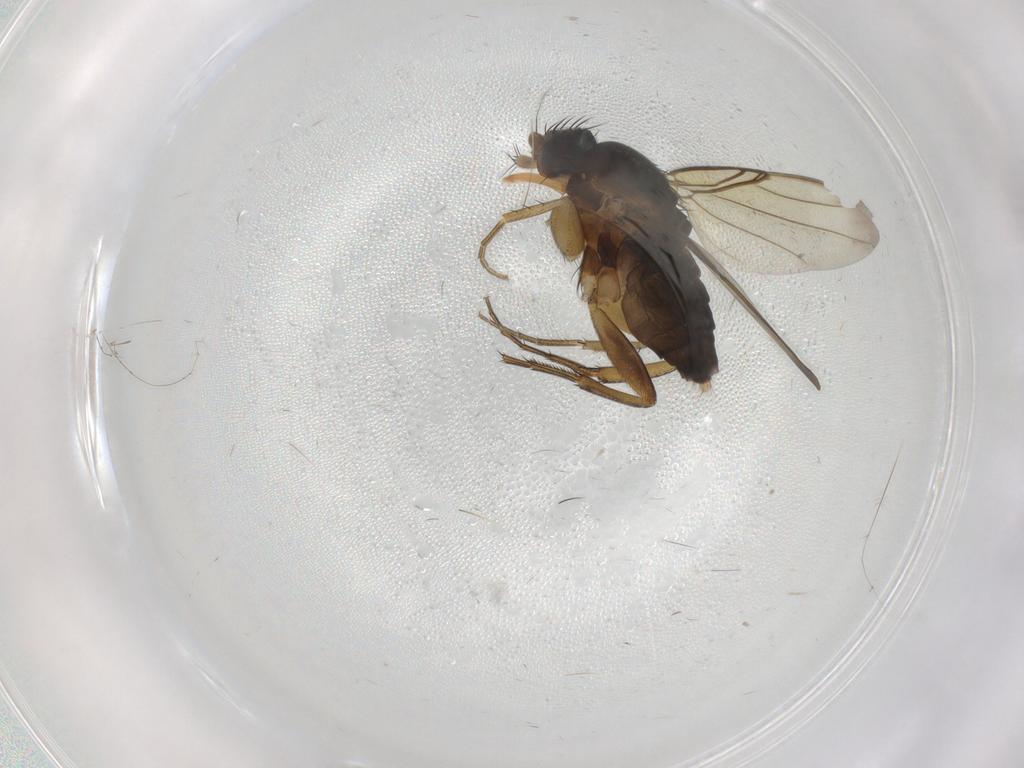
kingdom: Animalia
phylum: Arthropoda
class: Insecta
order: Diptera
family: Phoridae
